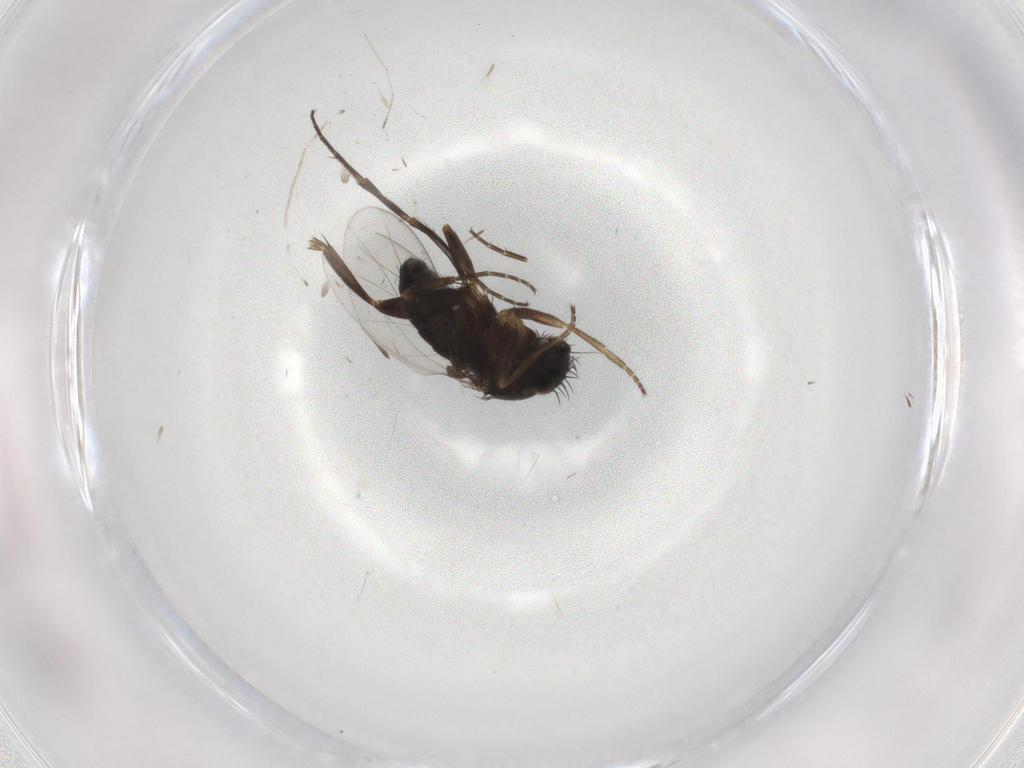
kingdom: Animalia
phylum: Arthropoda
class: Insecta
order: Diptera
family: Phoridae
